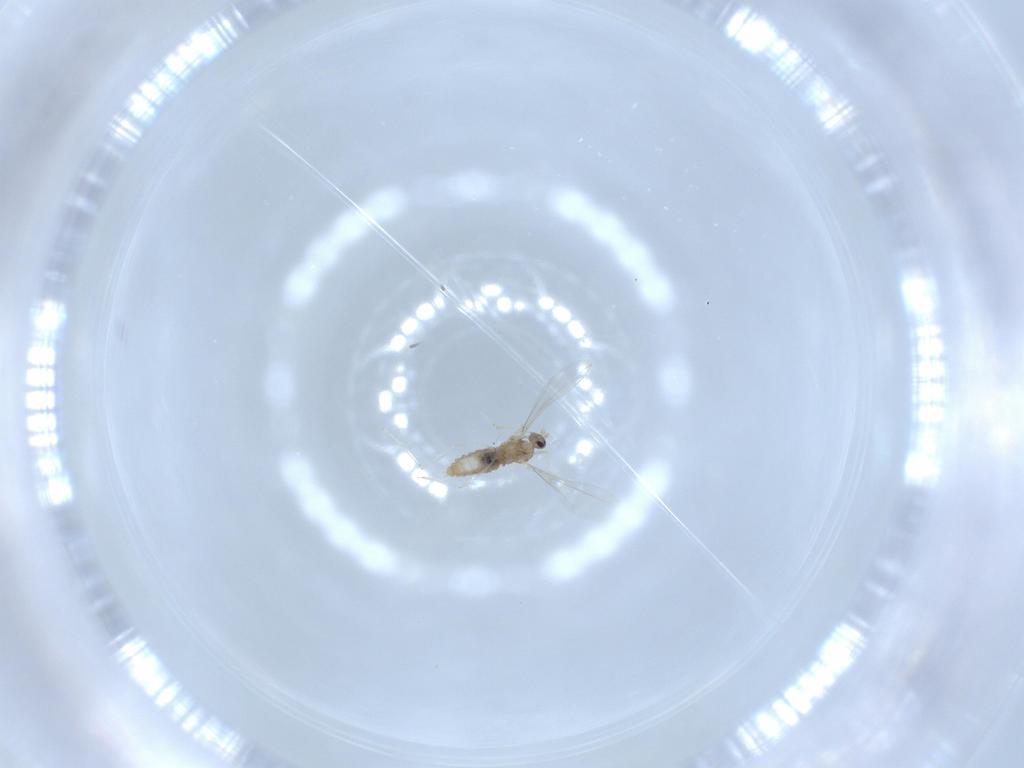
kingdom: Animalia
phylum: Arthropoda
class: Insecta
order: Diptera
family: Cecidomyiidae
